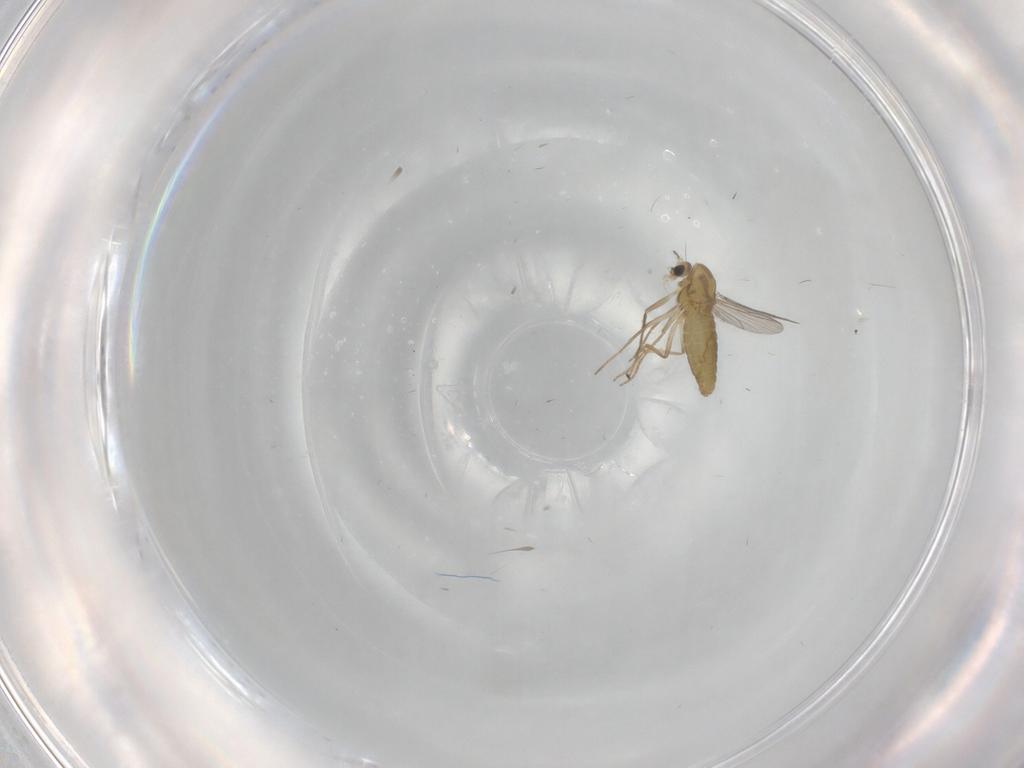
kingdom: Animalia
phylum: Arthropoda
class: Insecta
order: Diptera
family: Chironomidae
